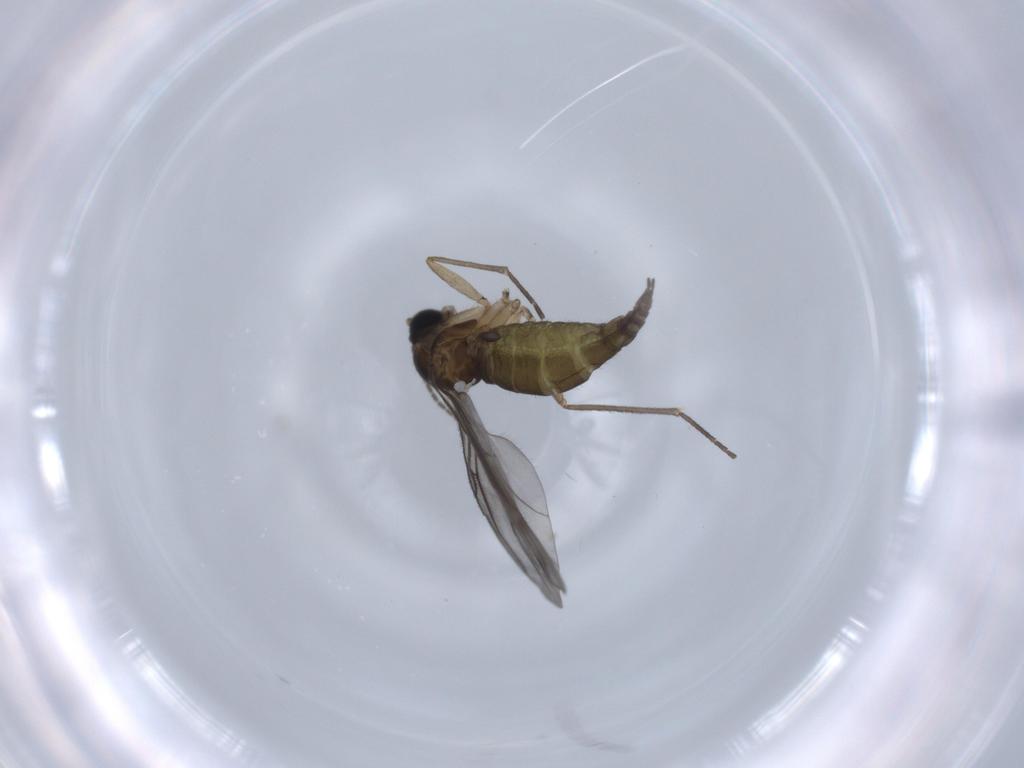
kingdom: Animalia
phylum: Arthropoda
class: Insecta
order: Diptera
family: Sciaridae
